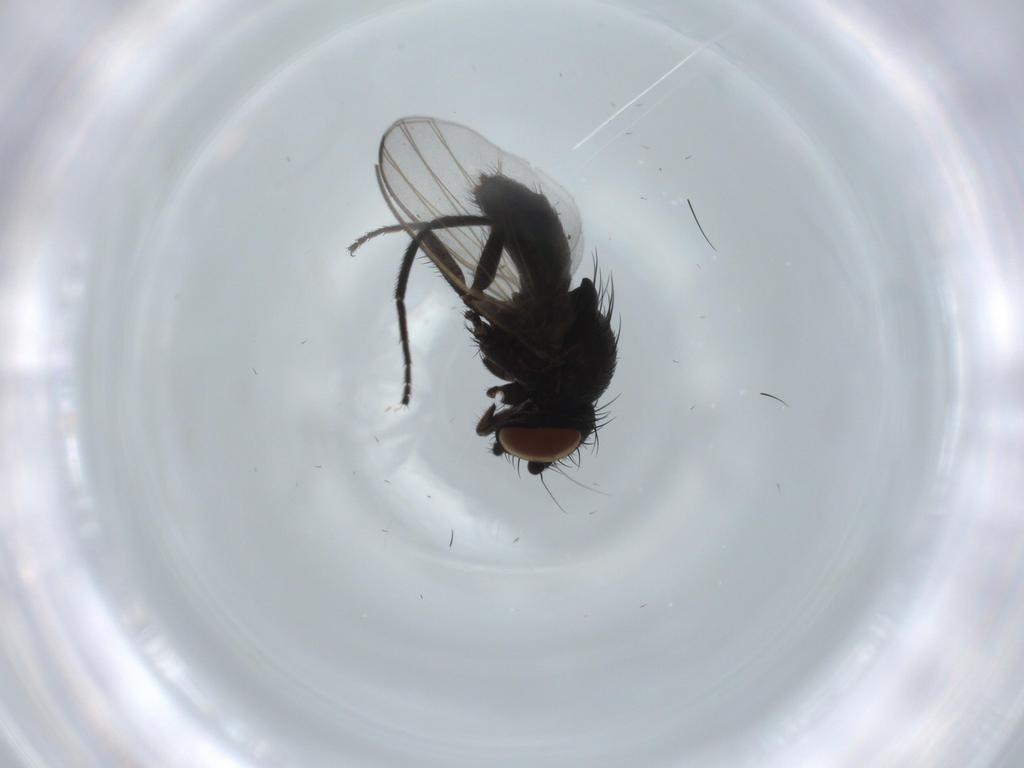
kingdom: Animalia
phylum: Arthropoda
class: Insecta
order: Diptera
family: Milichiidae
